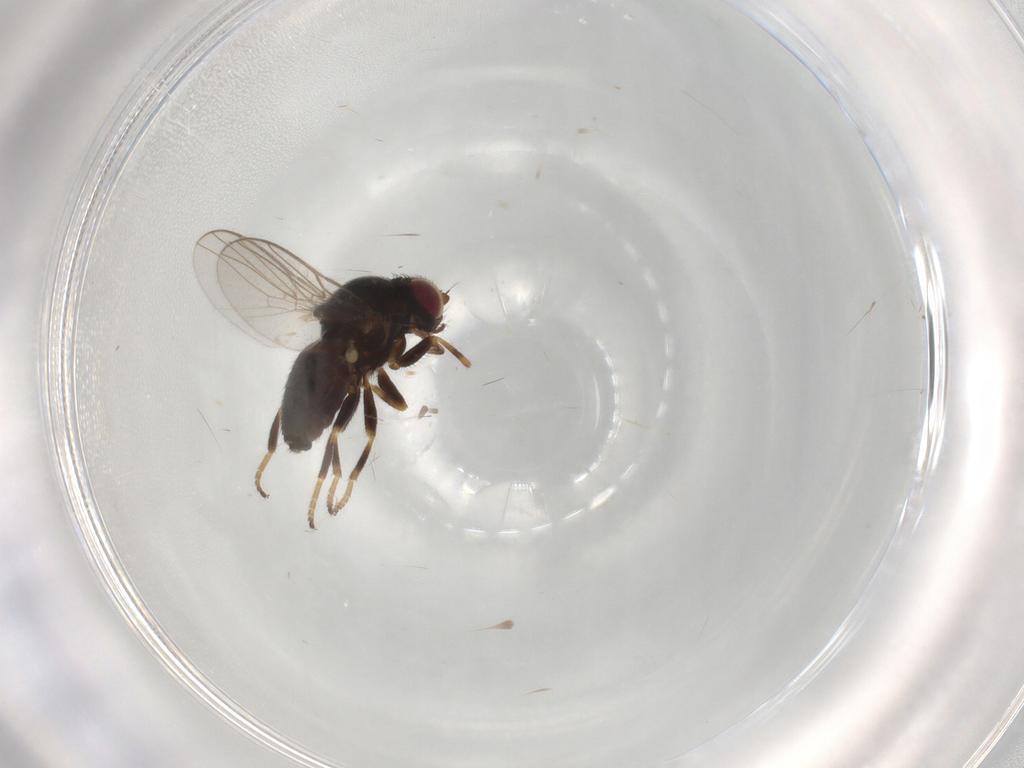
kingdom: Animalia
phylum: Arthropoda
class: Insecta
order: Diptera
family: Chloropidae
